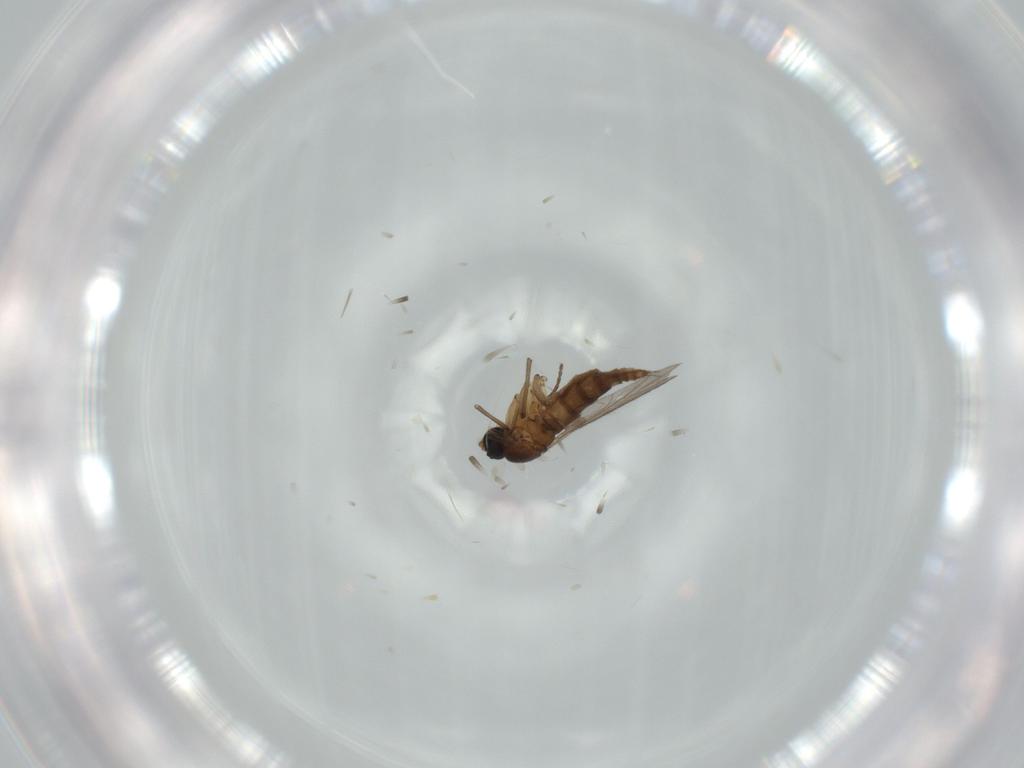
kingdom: Animalia
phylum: Arthropoda
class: Insecta
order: Diptera
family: Sciaridae
